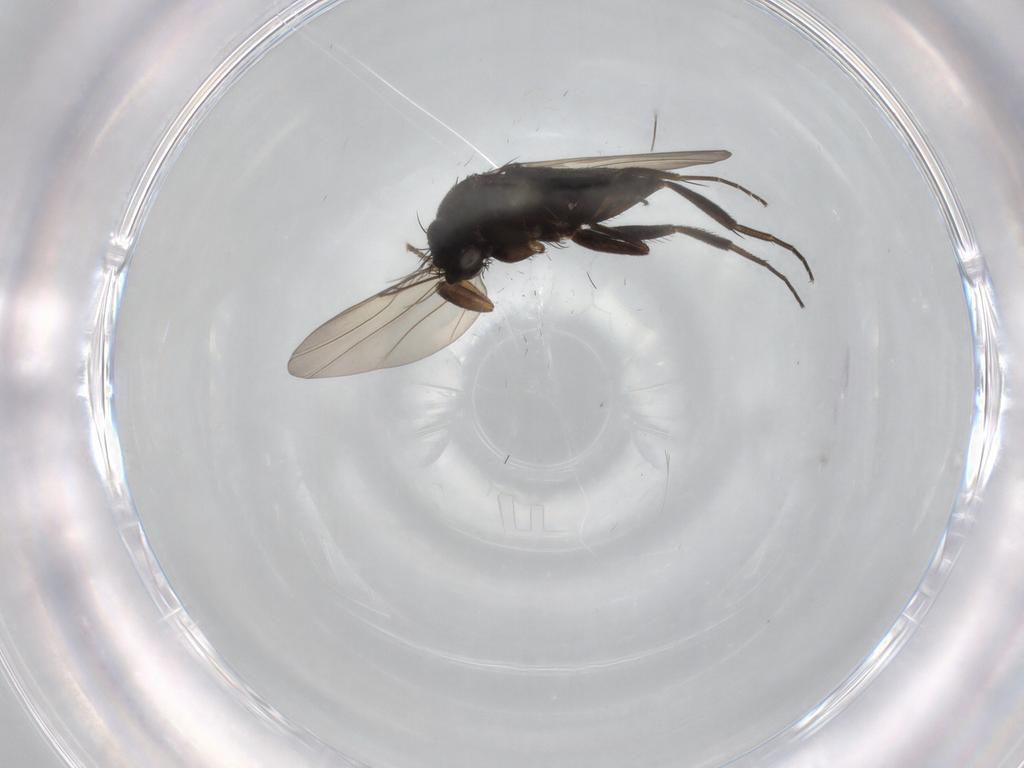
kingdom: Animalia
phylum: Arthropoda
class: Insecta
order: Diptera
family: Phoridae
